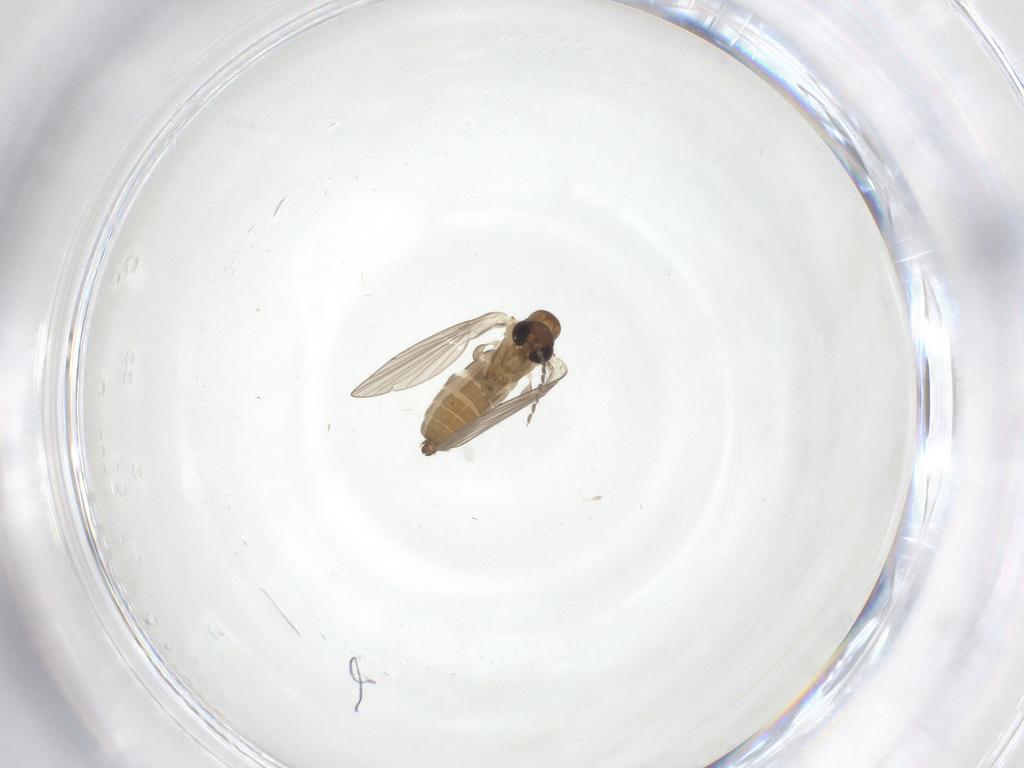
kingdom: Animalia
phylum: Arthropoda
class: Insecta
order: Diptera
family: Phoridae
